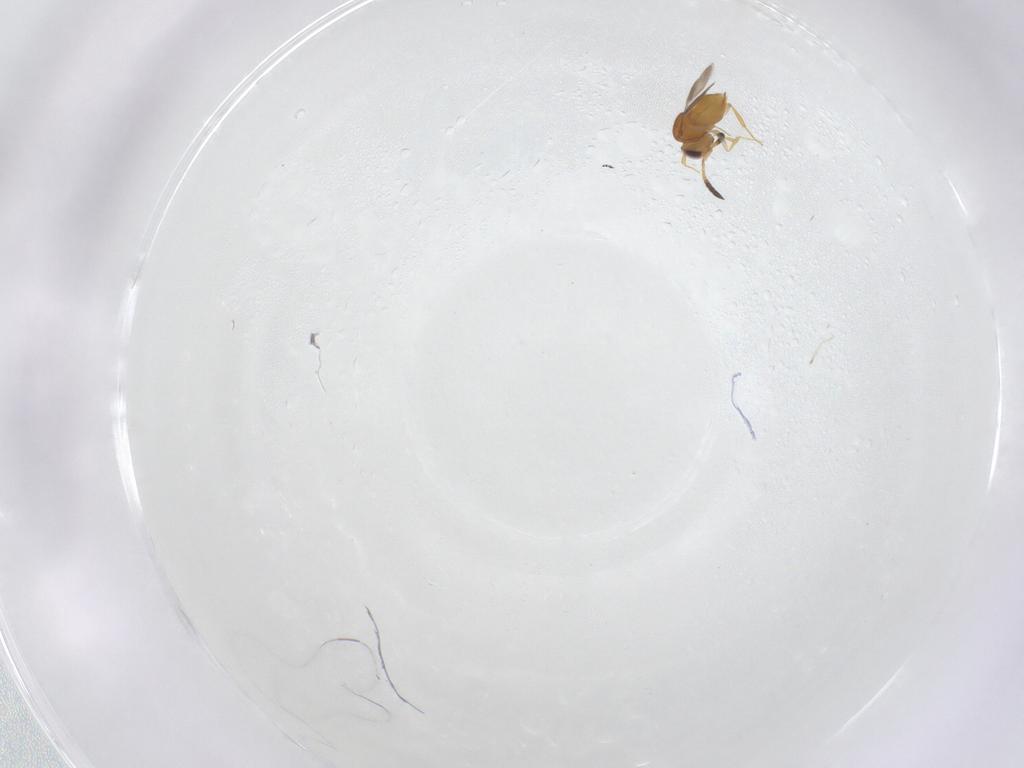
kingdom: Animalia
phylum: Arthropoda
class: Insecta
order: Hymenoptera
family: Ceraphronidae
